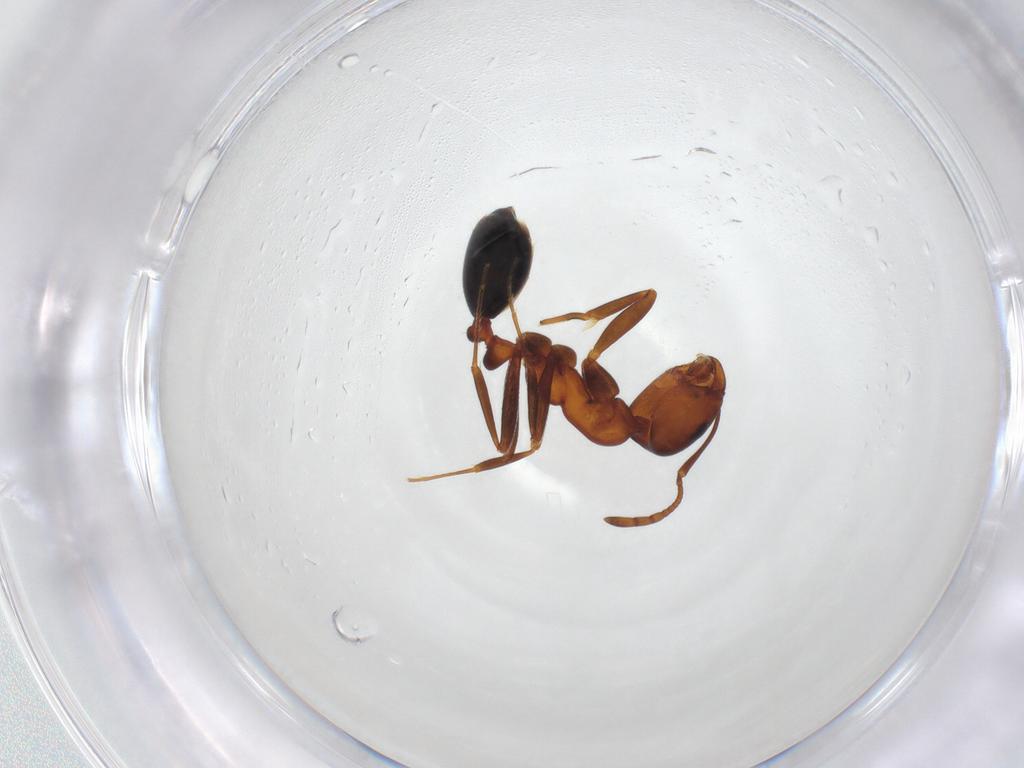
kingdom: Animalia
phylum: Arthropoda
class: Insecta
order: Hymenoptera
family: Formicidae
